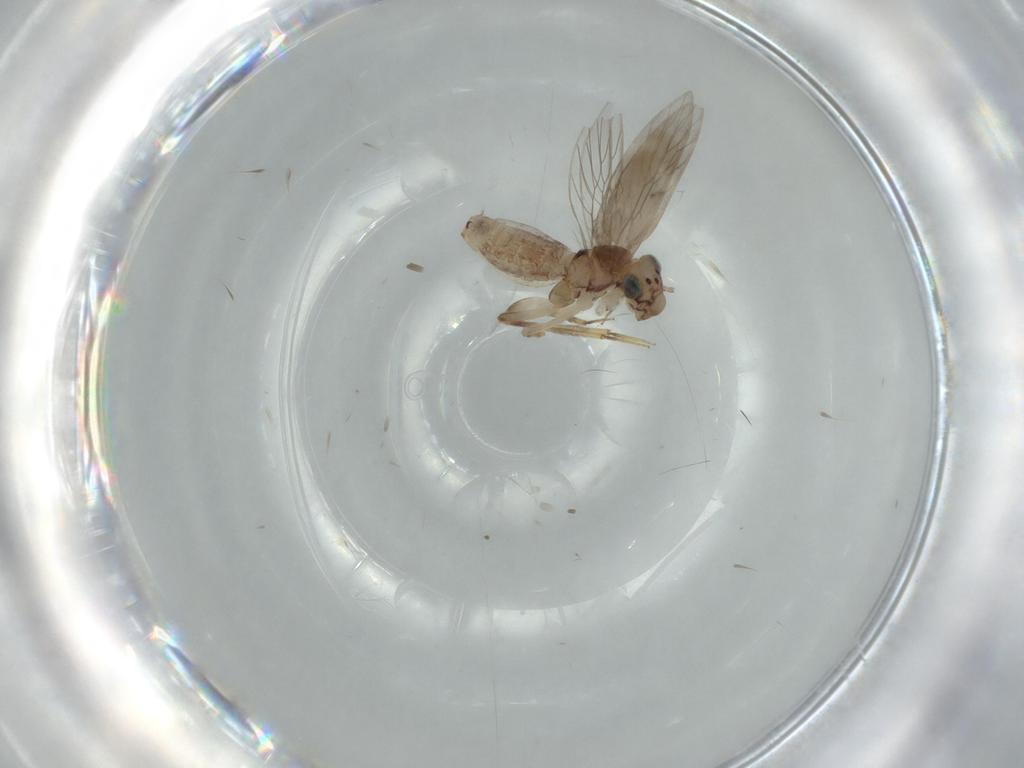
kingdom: Animalia
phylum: Arthropoda
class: Insecta
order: Psocodea
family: Lepidopsocidae
